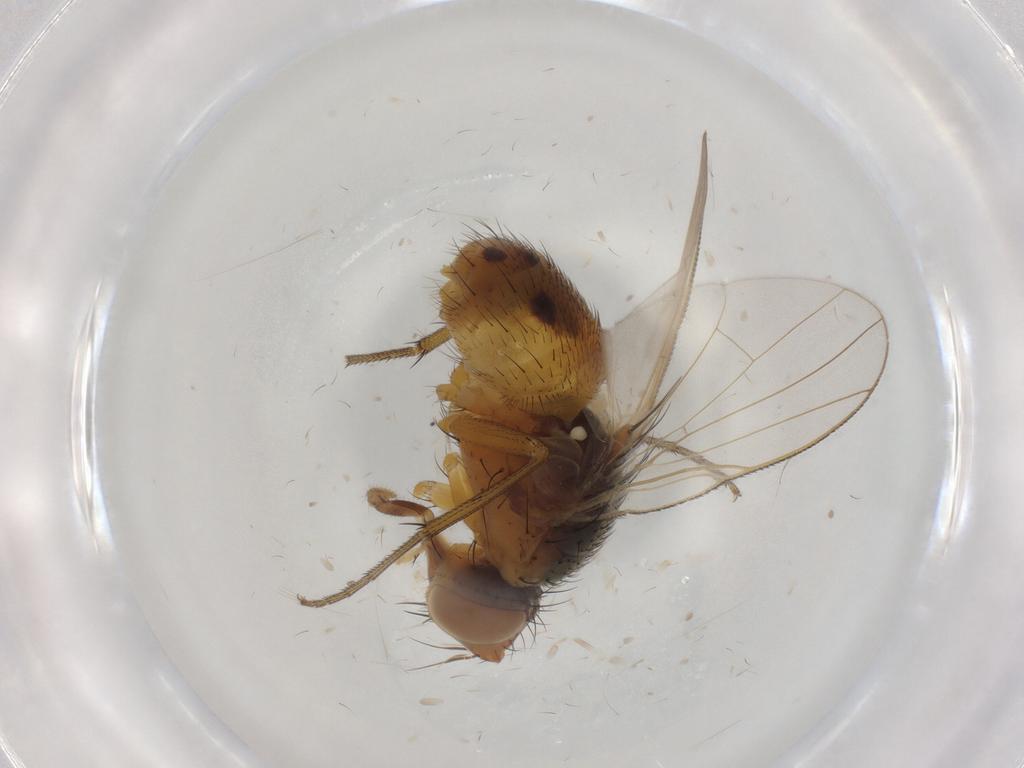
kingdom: Animalia
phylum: Arthropoda
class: Insecta
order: Diptera
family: Muscidae
